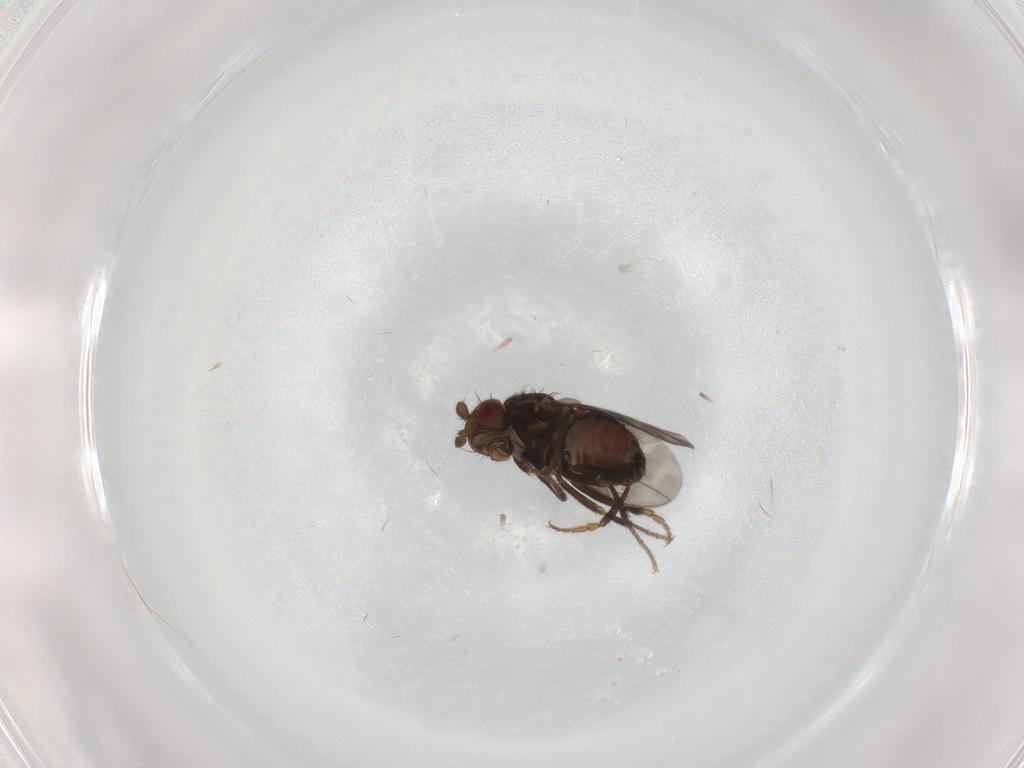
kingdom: Animalia
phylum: Arthropoda
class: Insecta
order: Diptera
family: Sphaeroceridae
